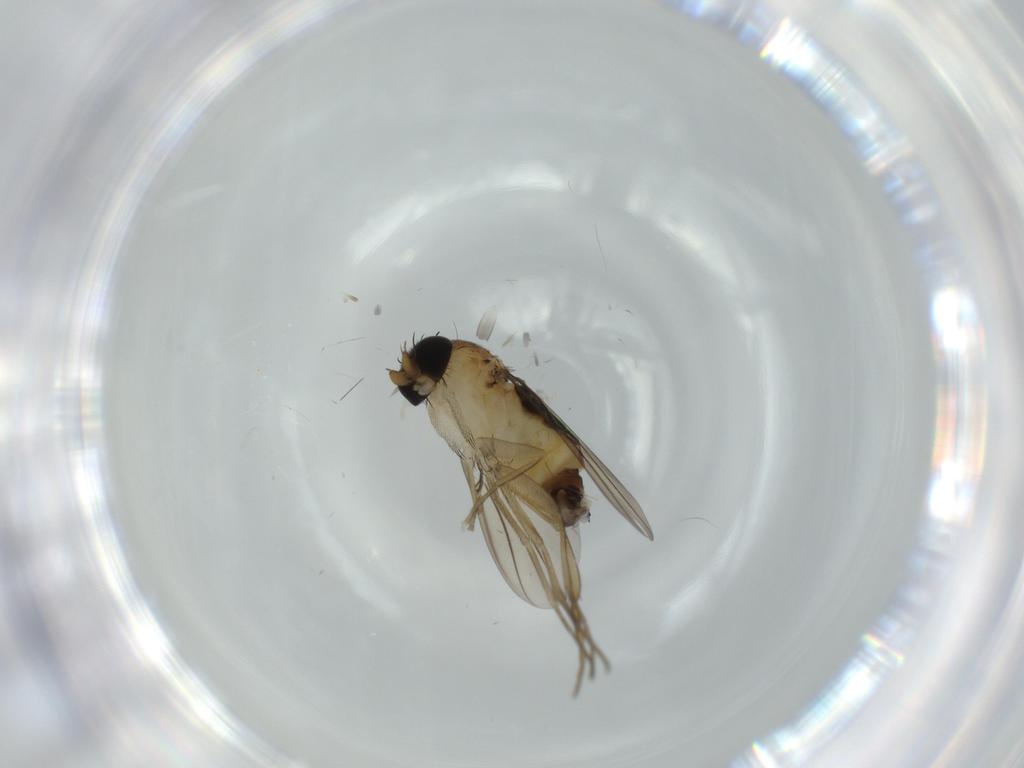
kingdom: Animalia
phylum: Arthropoda
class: Insecta
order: Diptera
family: Phoridae
